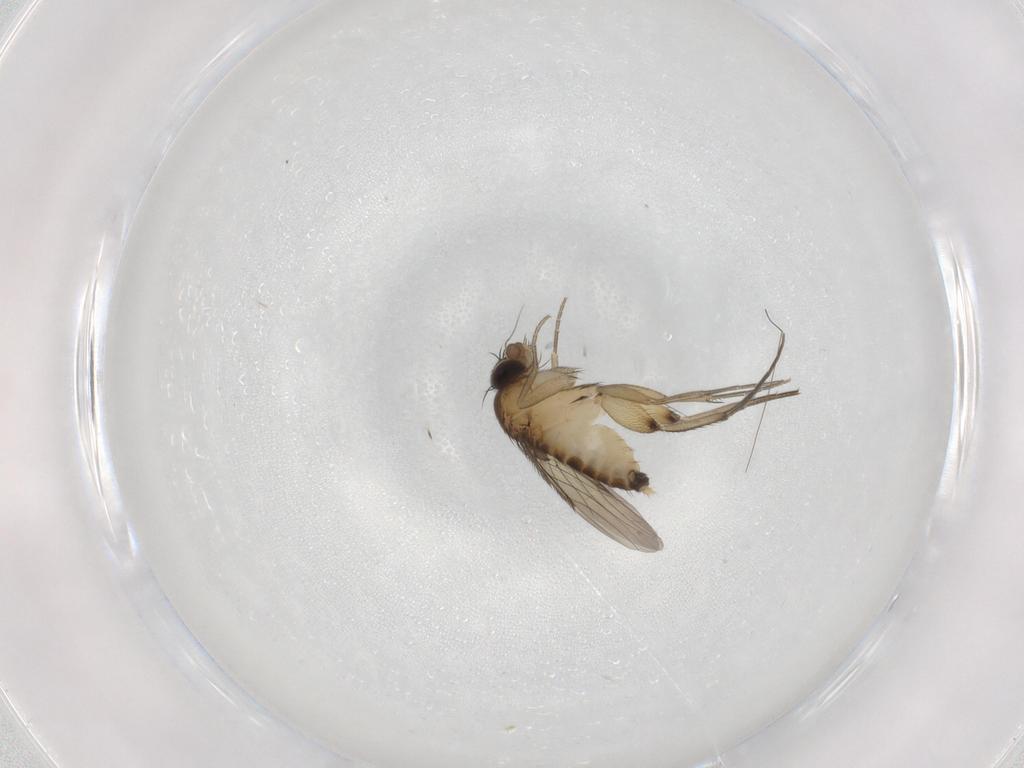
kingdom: Animalia
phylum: Arthropoda
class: Insecta
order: Diptera
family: Phoridae
